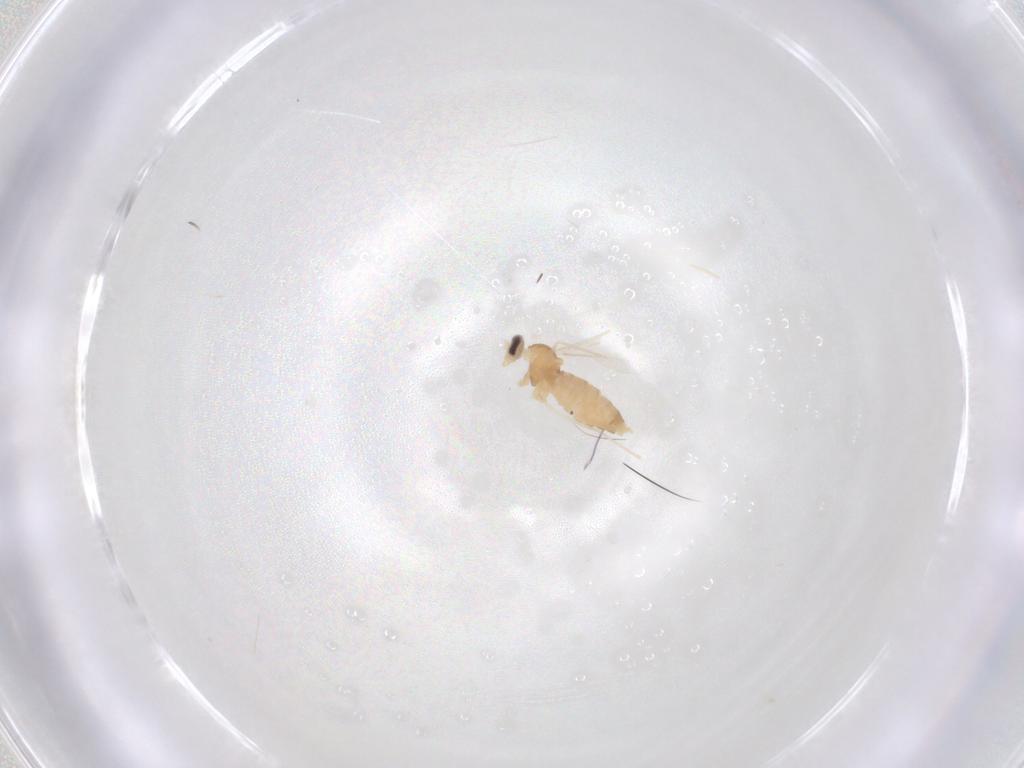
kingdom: Animalia
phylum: Arthropoda
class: Insecta
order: Diptera
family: Cecidomyiidae
